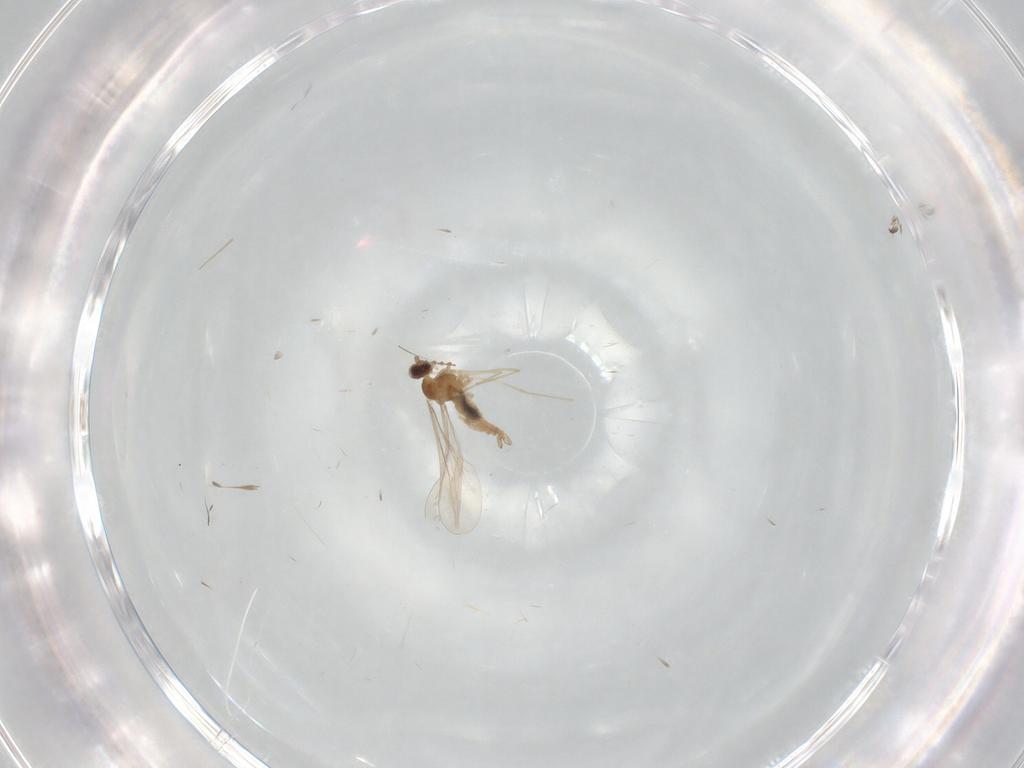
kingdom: Animalia
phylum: Arthropoda
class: Insecta
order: Diptera
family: Cecidomyiidae
